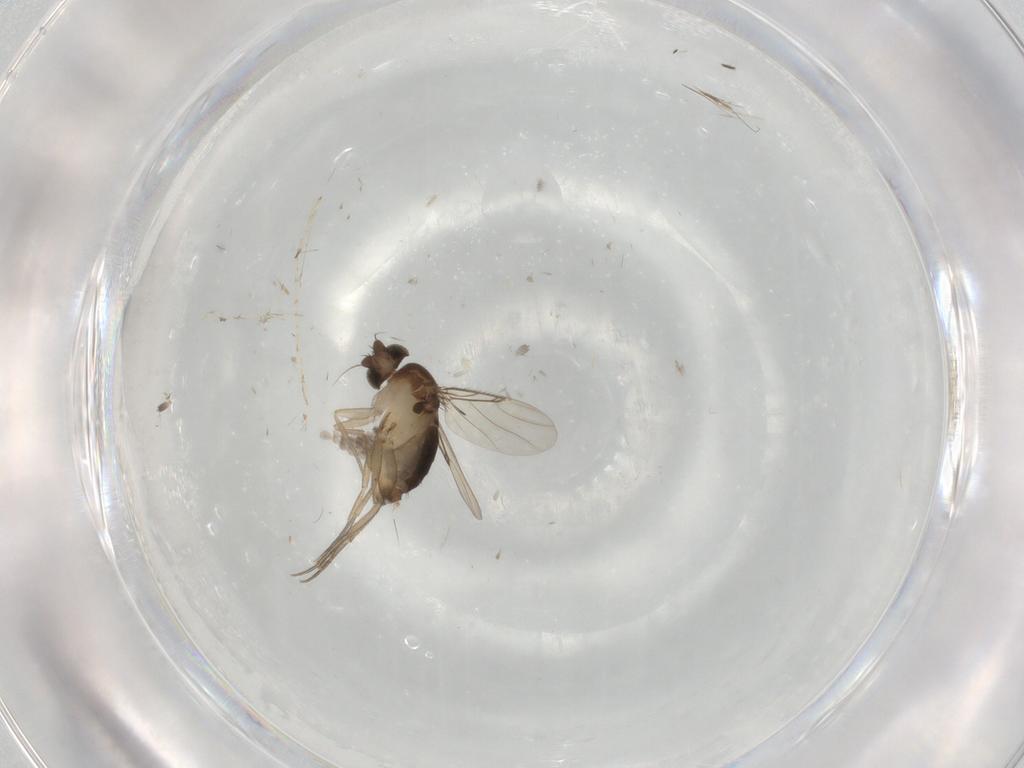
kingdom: Animalia
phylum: Arthropoda
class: Insecta
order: Diptera
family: Cecidomyiidae
